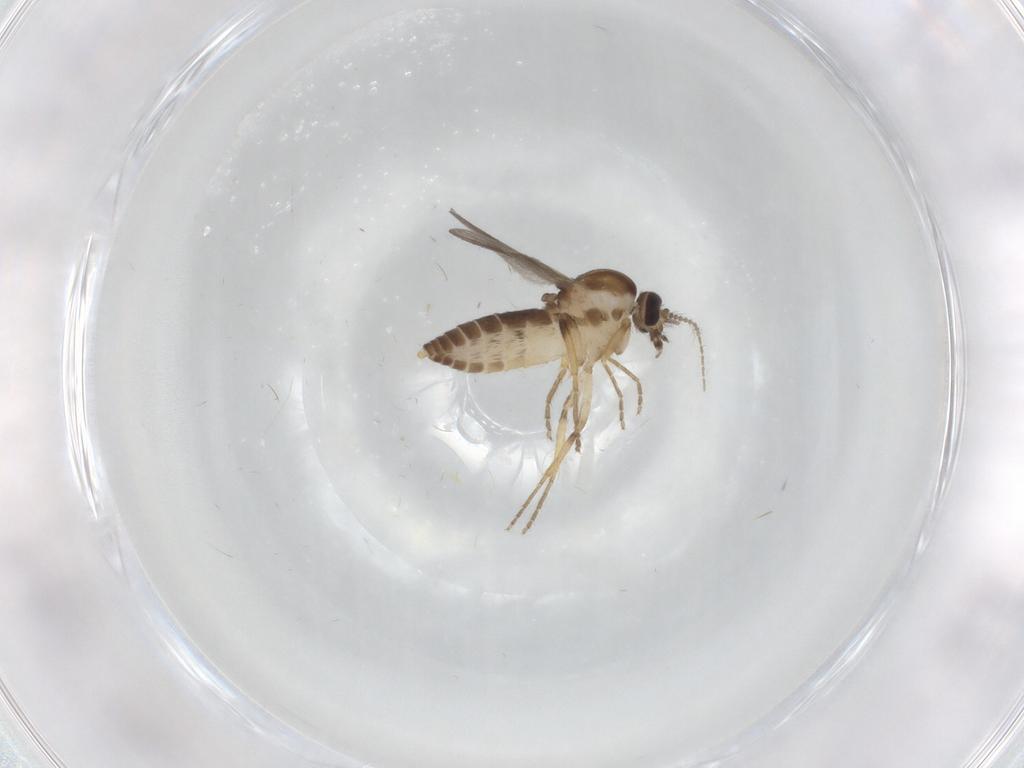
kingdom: Animalia
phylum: Arthropoda
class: Insecta
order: Diptera
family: Ceratopogonidae
